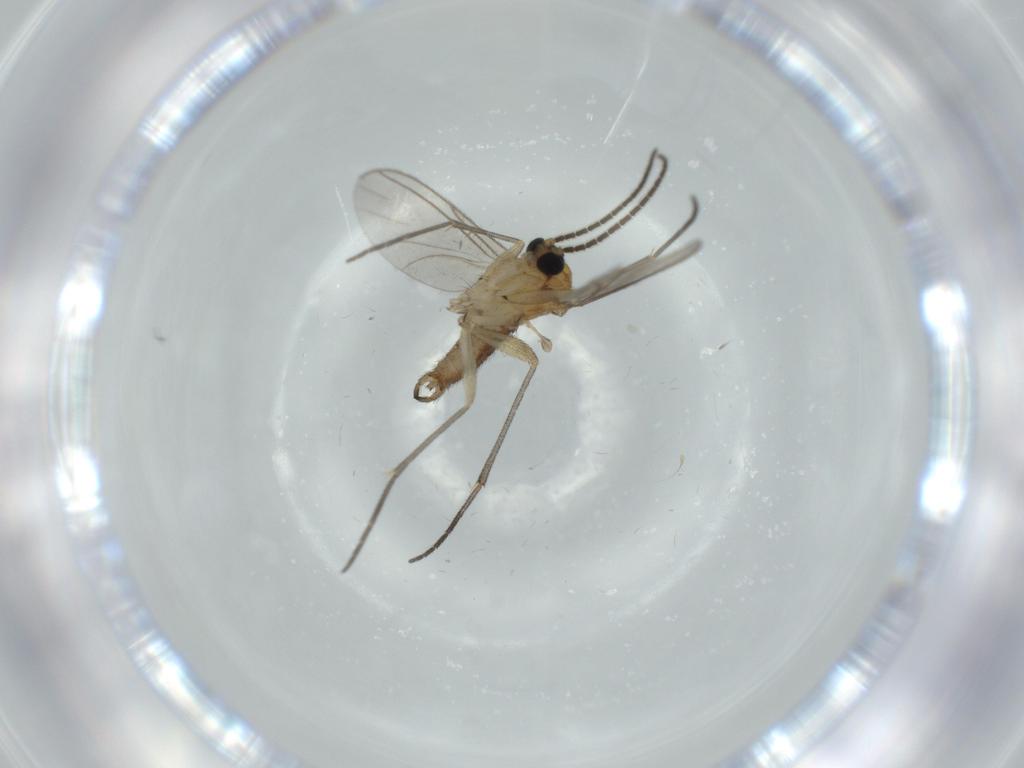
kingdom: Animalia
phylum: Arthropoda
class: Insecta
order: Diptera
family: Sciaridae
